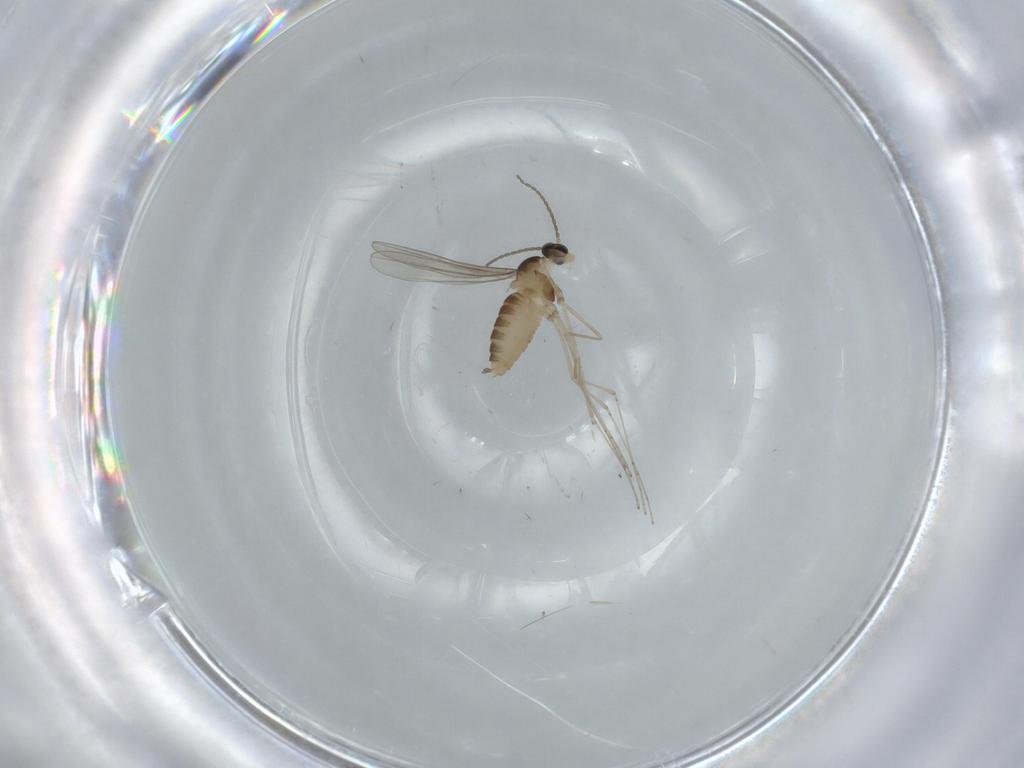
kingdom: Animalia
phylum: Arthropoda
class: Insecta
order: Diptera
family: Cecidomyiidae
